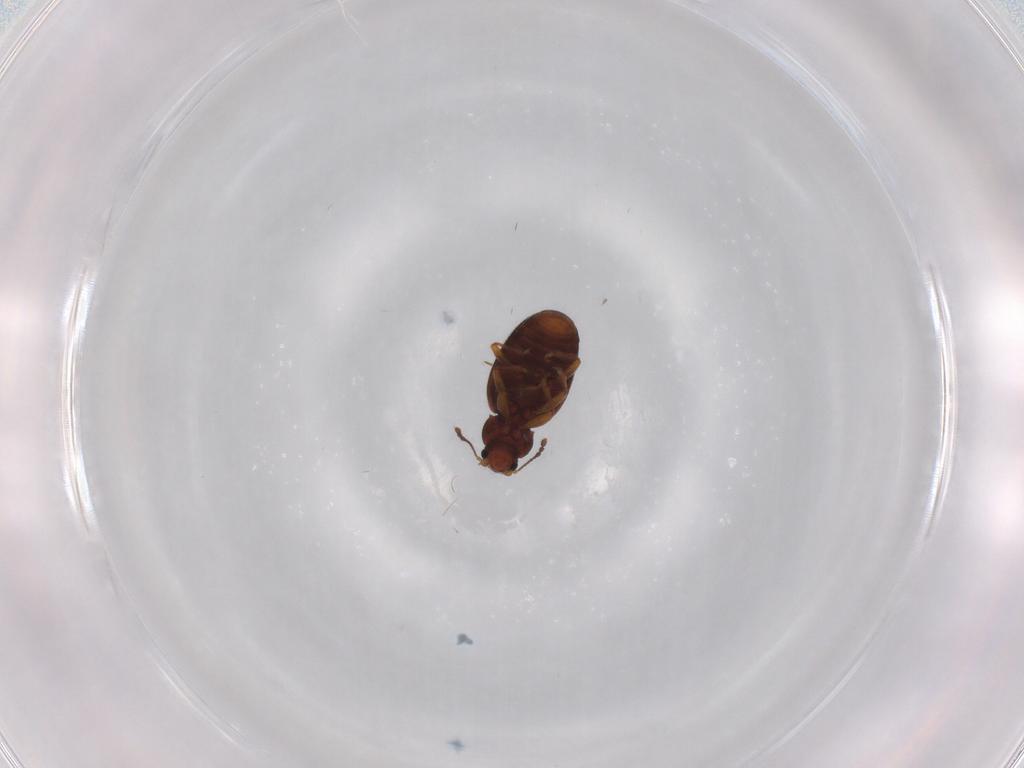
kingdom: Animalia
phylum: Arthropoda
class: Insecta
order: Coleoptera
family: Latridiidae
